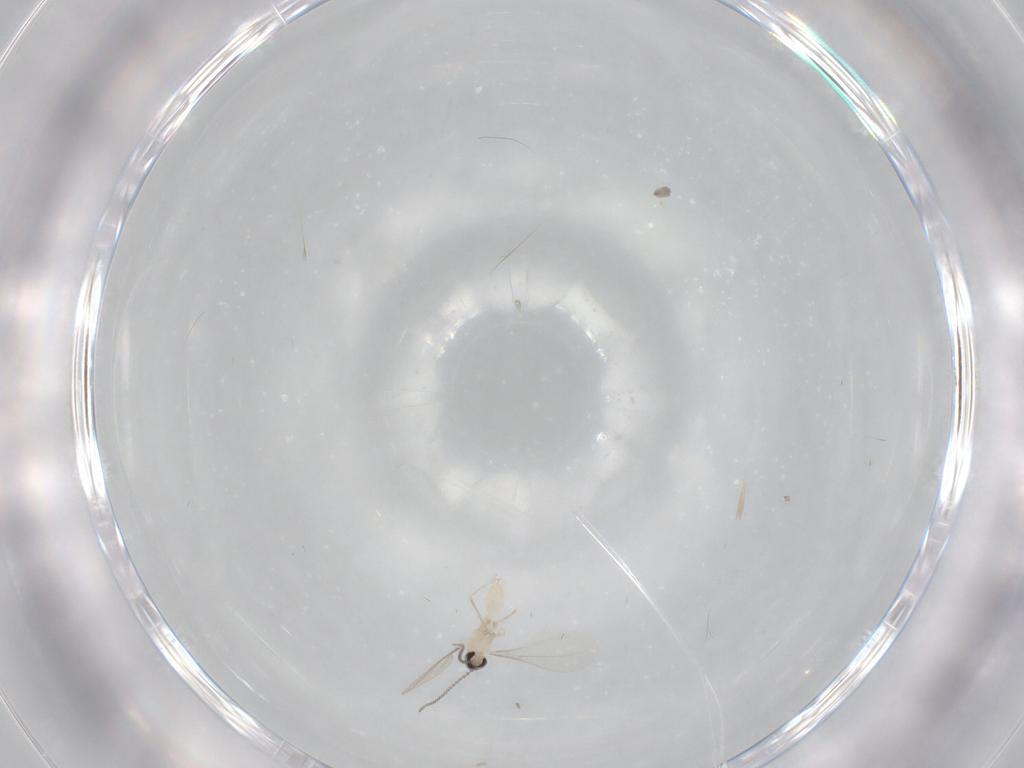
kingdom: Animalia
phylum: Arthropoda
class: Insecta
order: Diptera
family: Cecidomyiidae
